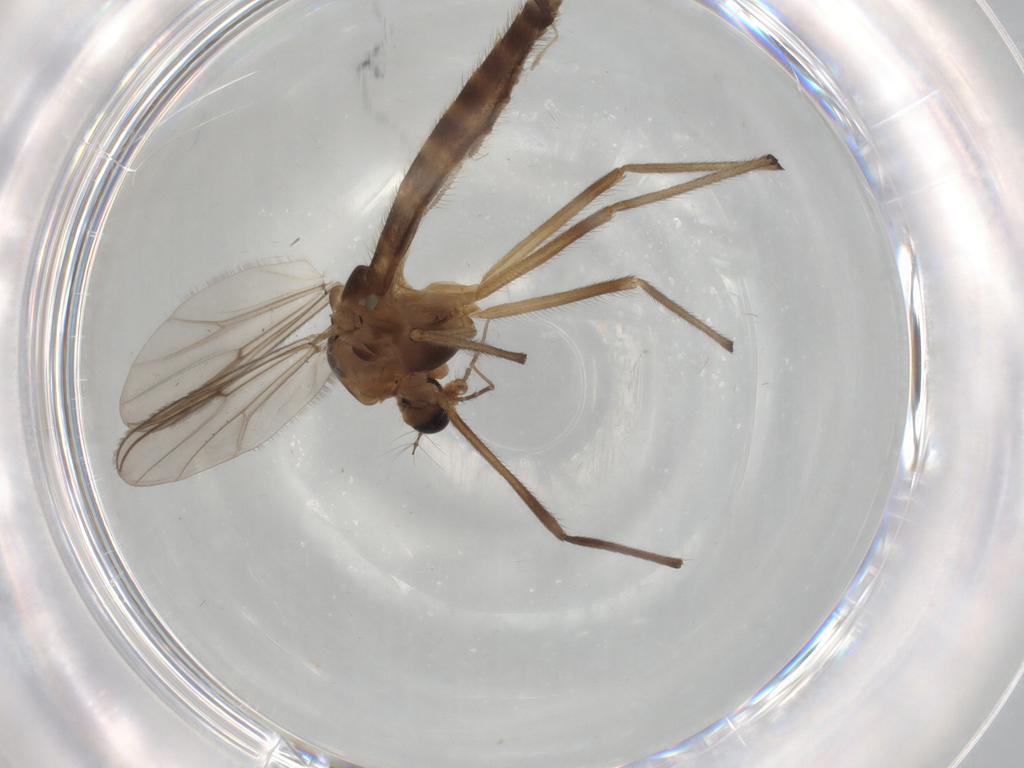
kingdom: Animalia
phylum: Arthropoda
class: Insecta
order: Diptera
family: Chironomidae
